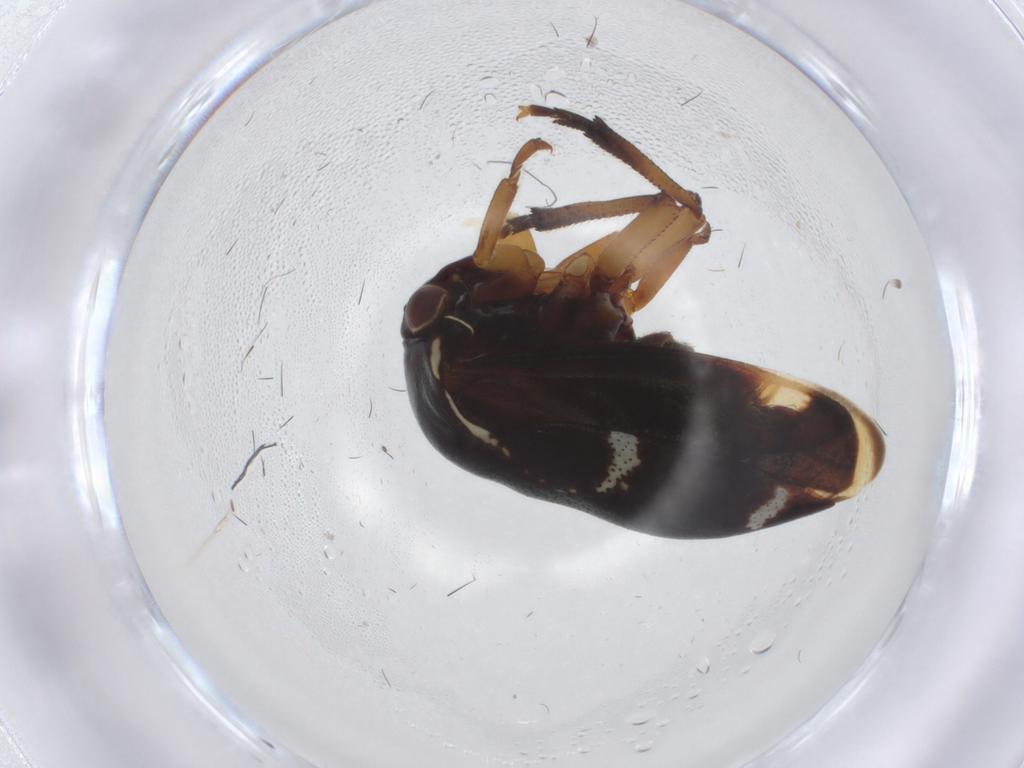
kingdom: Animalia
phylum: Arthropoda
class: Insecta
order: Hemiptera
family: Membracidae
